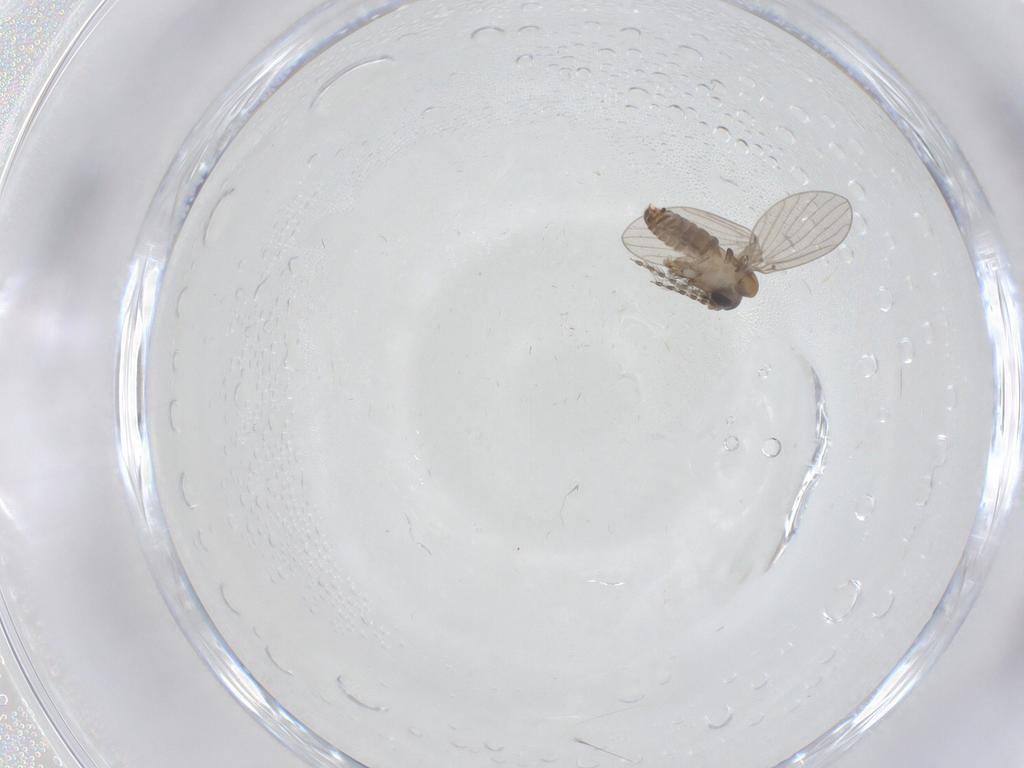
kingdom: Animalia
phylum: Arthropoda
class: Insecta
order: Diptera
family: Psychodidae
